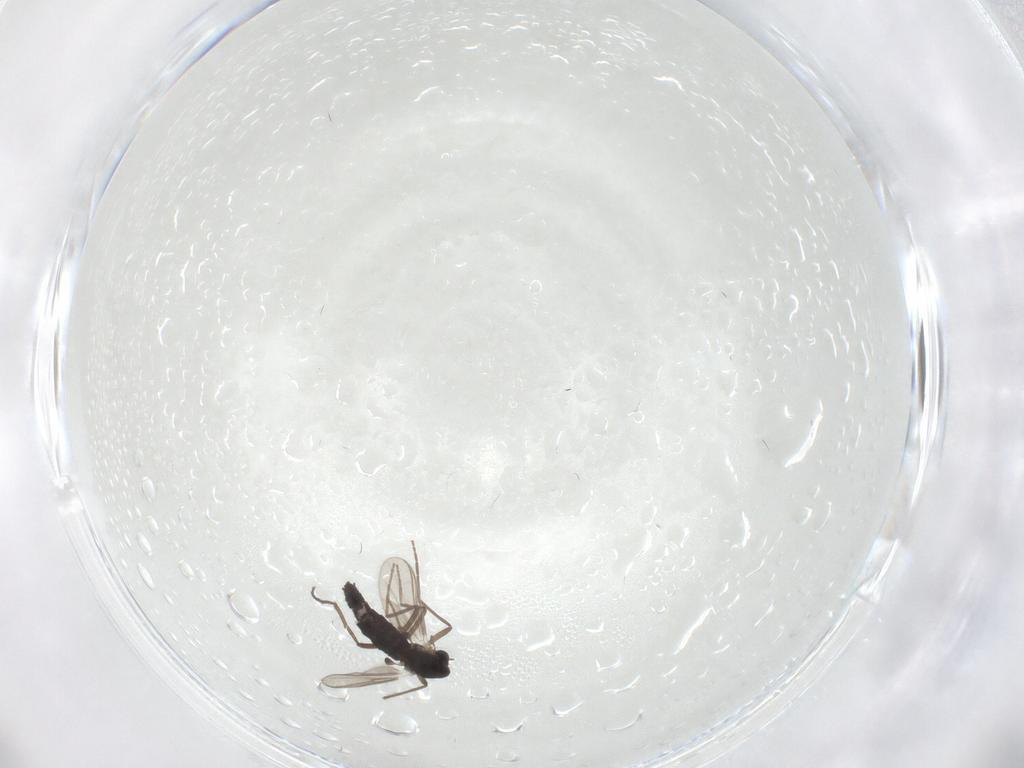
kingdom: Animalia
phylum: Arthropoda
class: Insecta
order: Diptera
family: Chironomidae
